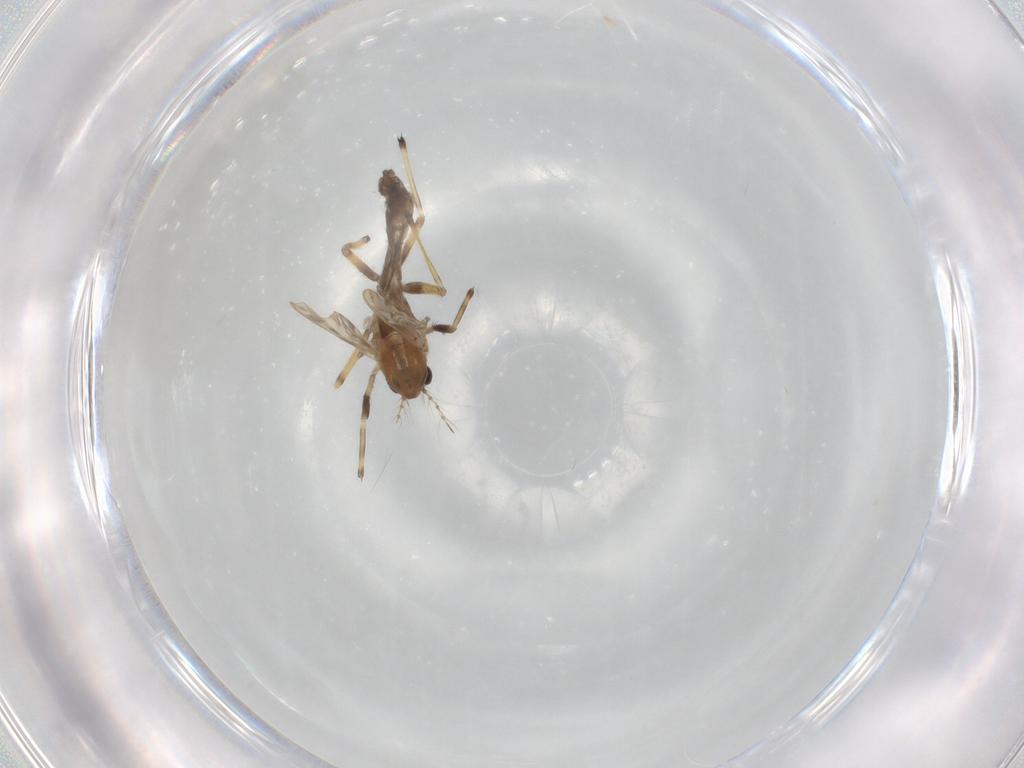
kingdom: Animalia
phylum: Arthropoda
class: Insecta
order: Diptera
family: Chironomidae
